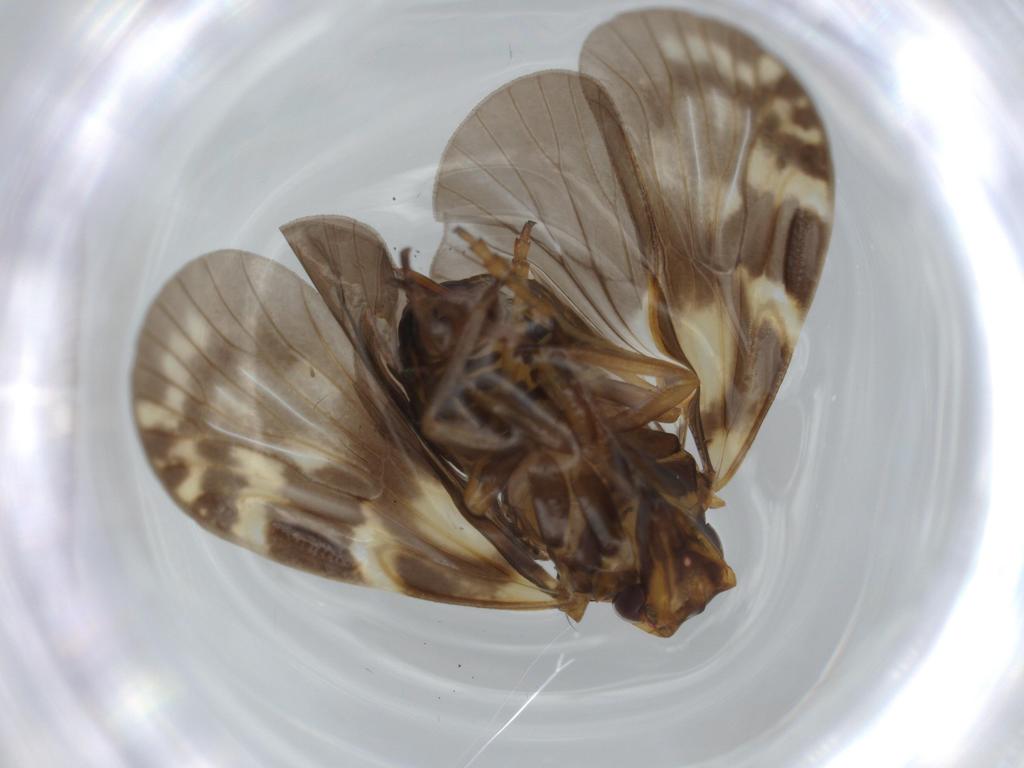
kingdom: Animalia
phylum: Arthropoda
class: Insecta
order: Hemiptera
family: Cixiidae
